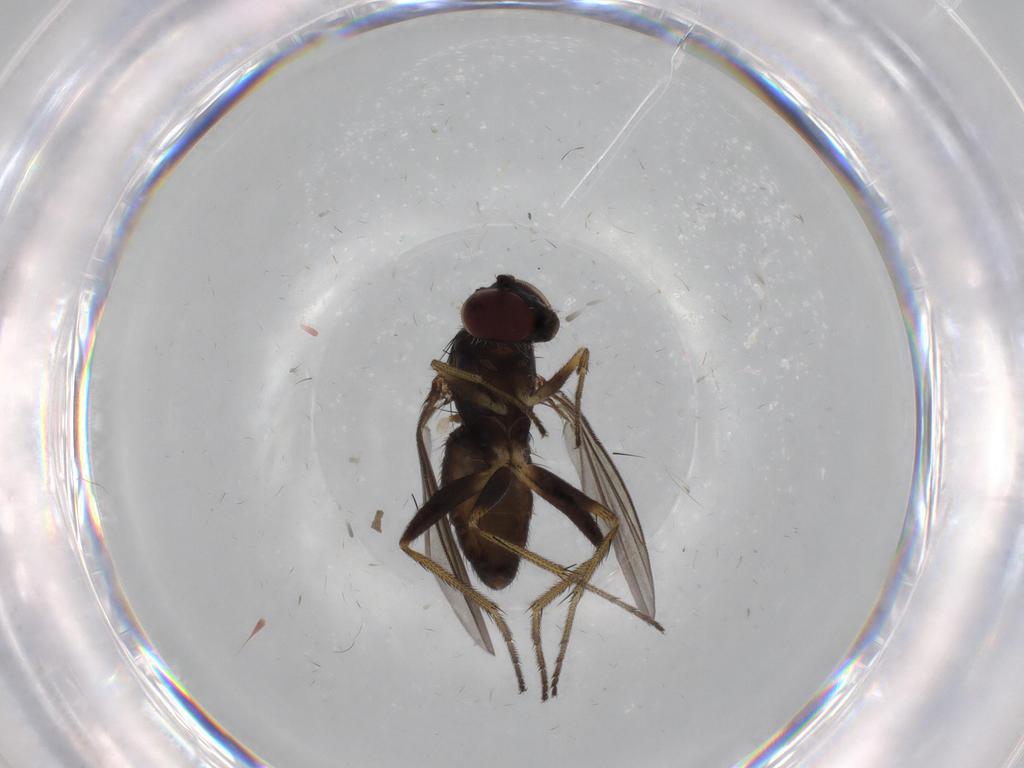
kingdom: Animalia
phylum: Arthropoda
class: Insecta
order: Diptera
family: Dolichopodidae
